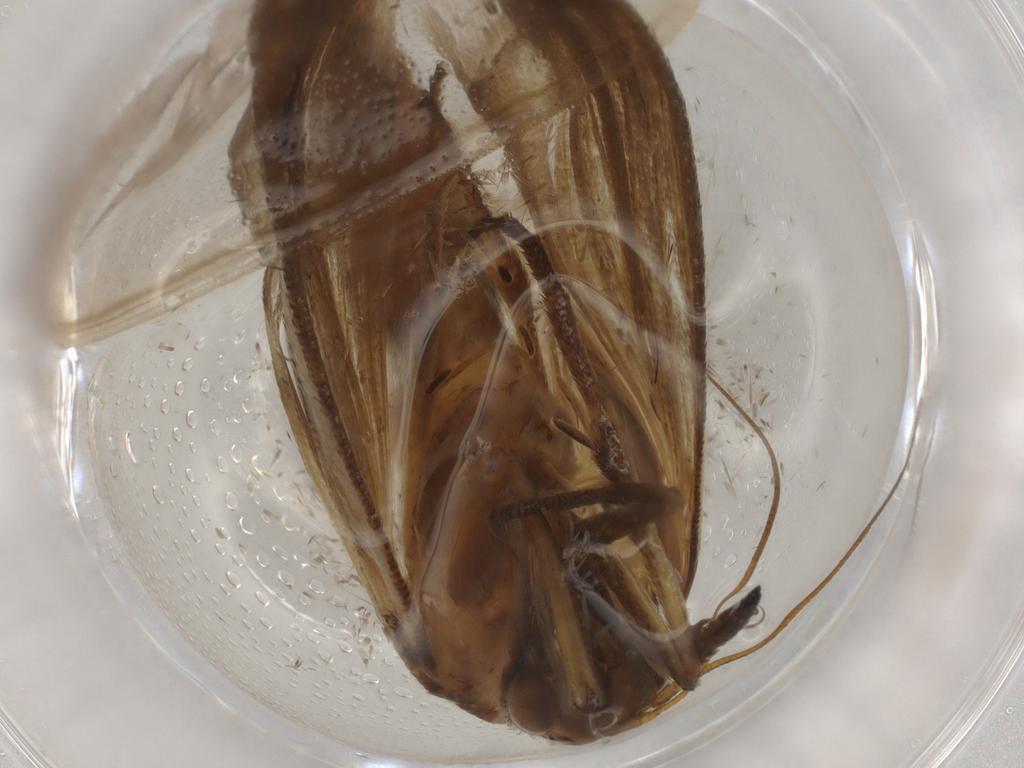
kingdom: Animalia
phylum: Arthropoda
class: Insecta
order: Lepidoptera
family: Pyralidae
